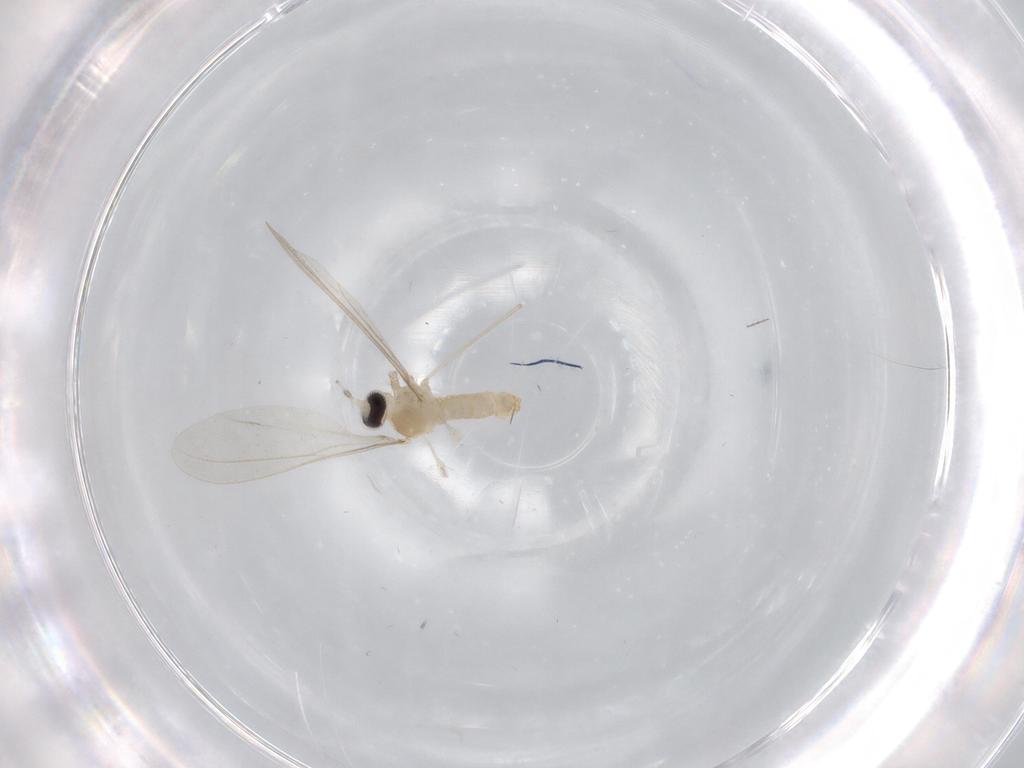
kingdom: Animalia
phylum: Arthropoda
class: Insecta
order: Diptera
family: Cecidomyiidae
